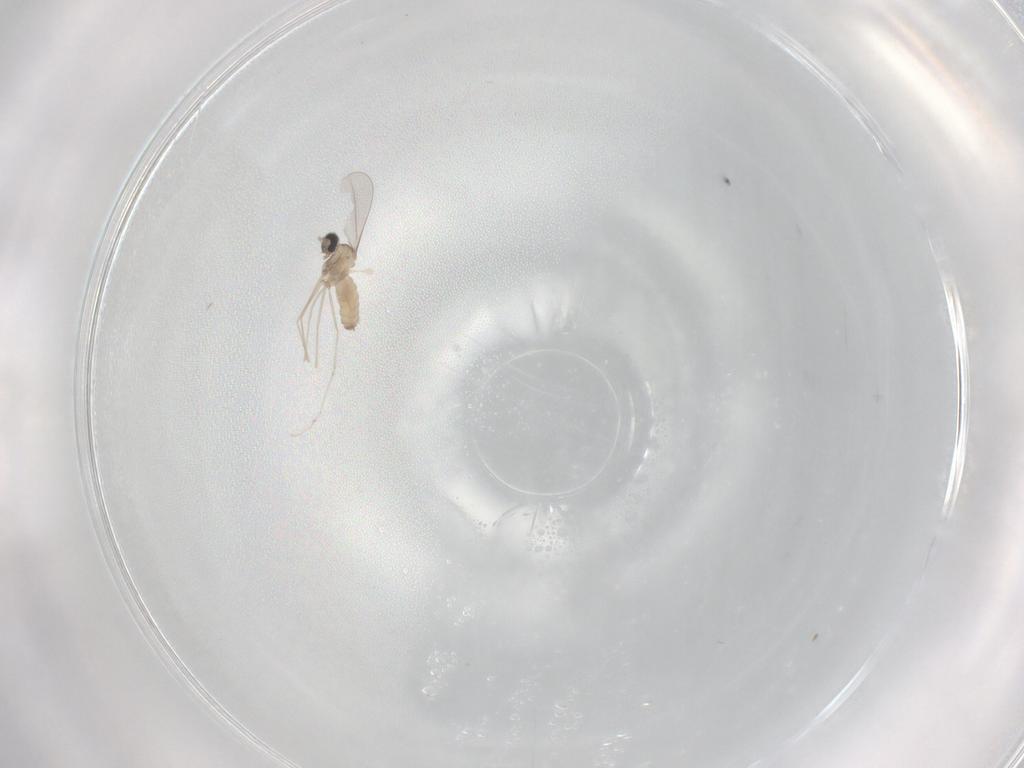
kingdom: Animalia
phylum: Arthropoda
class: Insecta
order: Diptera
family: Cecidomyiidae
